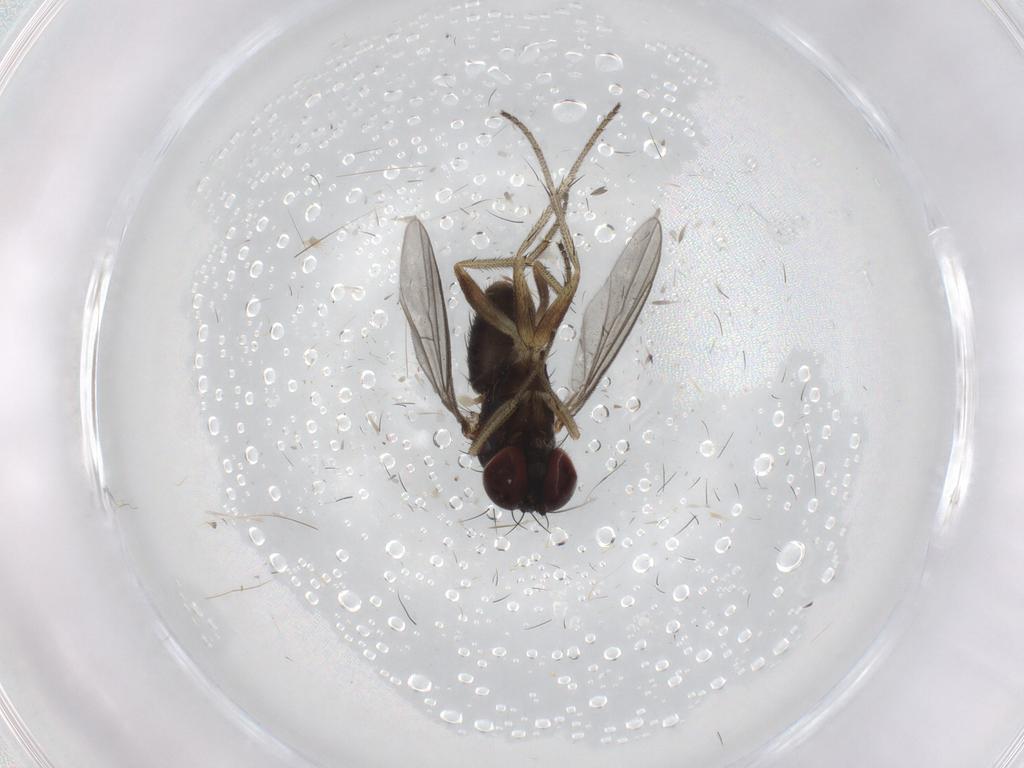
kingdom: Animalia
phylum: Arthropoda
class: Insecta
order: Diptera
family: Dolichopodidae
